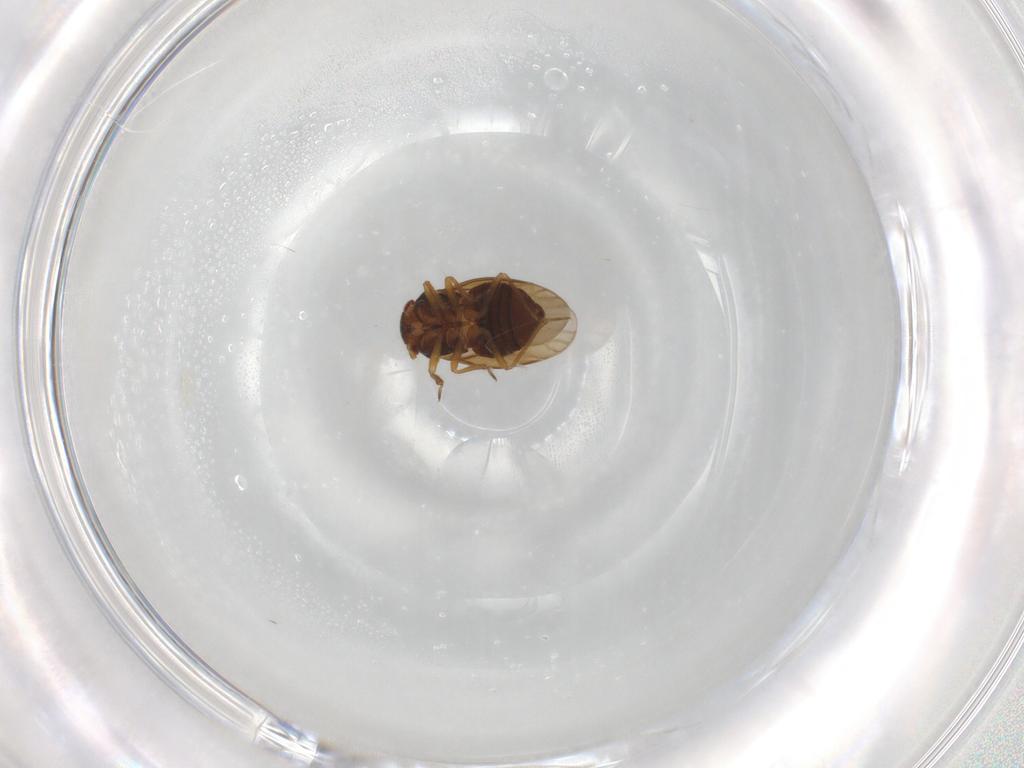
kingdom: Animalia
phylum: Arthropoda
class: Insecta
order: Hemiptera
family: Schizopteridae
